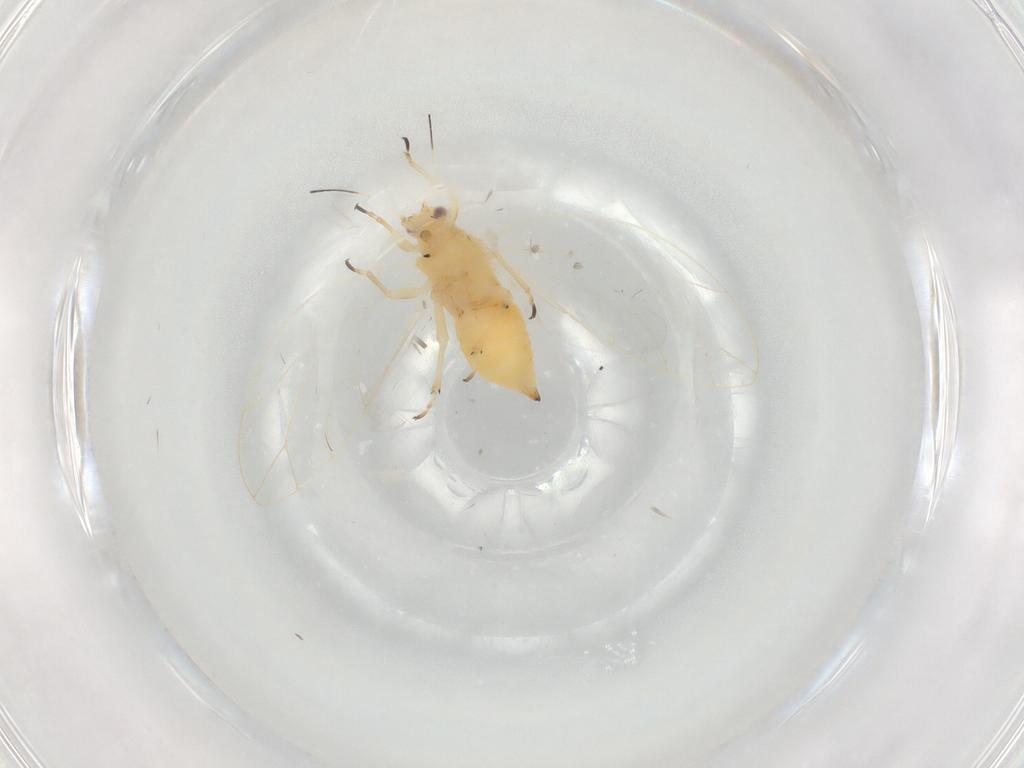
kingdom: Animalia
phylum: Arthropoda
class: Insecta
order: Hemiptera
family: Triozidae
